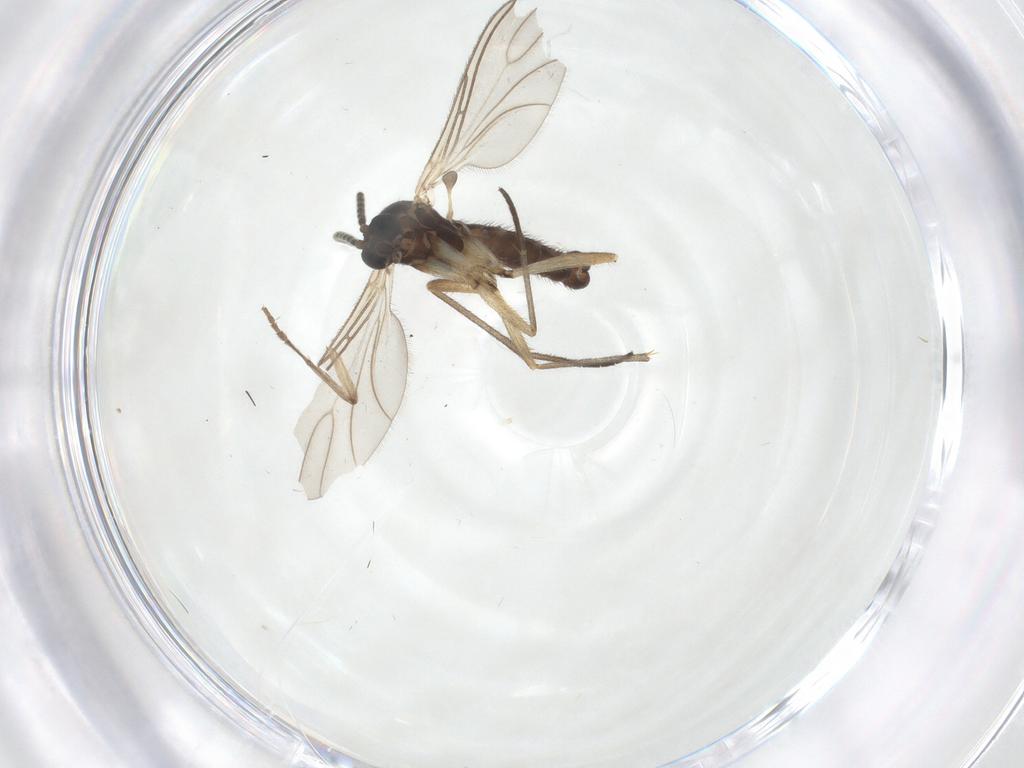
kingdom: Animalia
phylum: Arthropoda
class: Insecta
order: Diptera
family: Sciaridae
